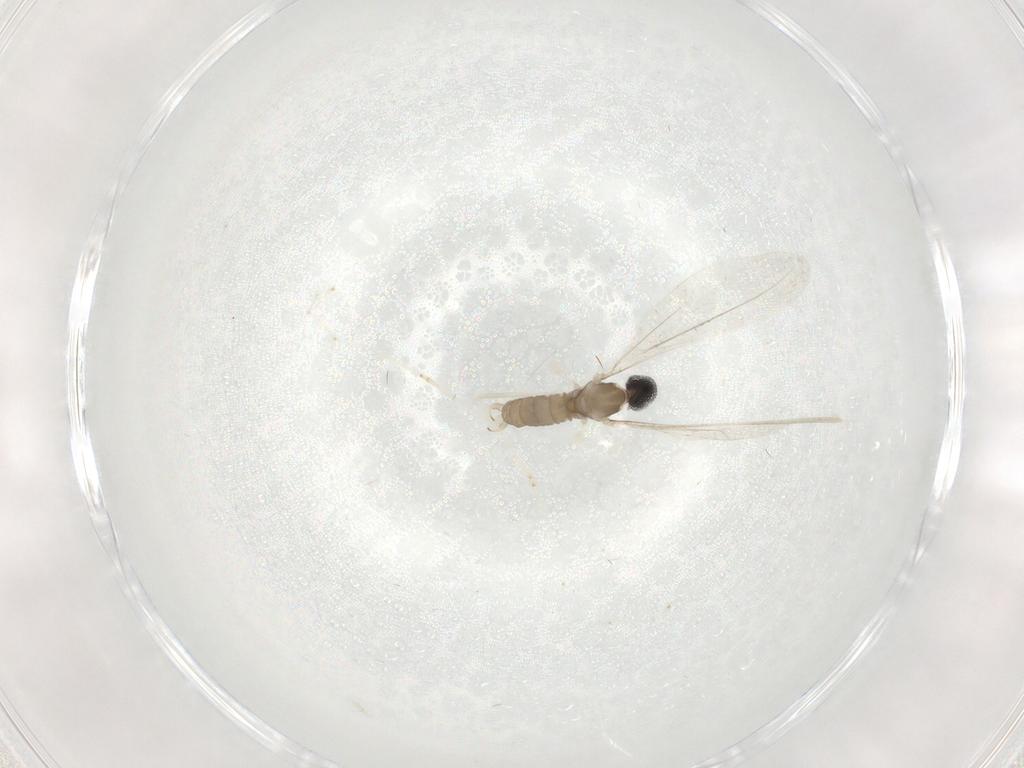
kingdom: Animalia
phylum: Arthropoda
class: Insecta
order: Diptera
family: Cecidomyiidae
